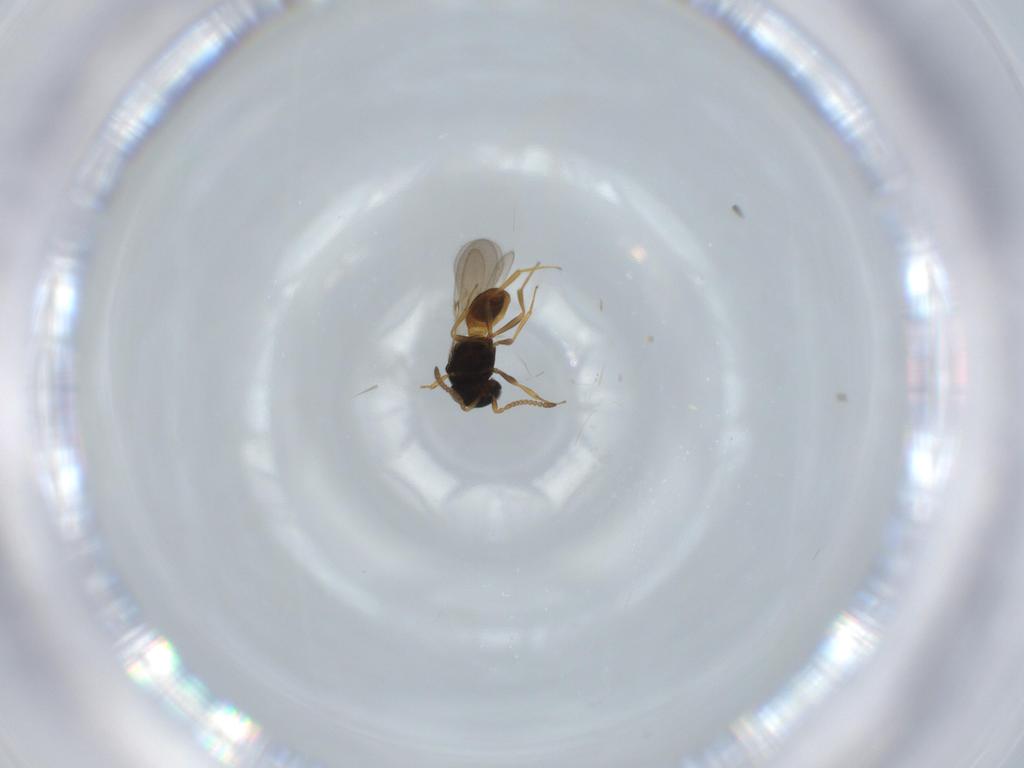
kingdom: Animalia
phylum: Arthropoda
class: Insecta
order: Hymenoptera
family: Scelionidae
